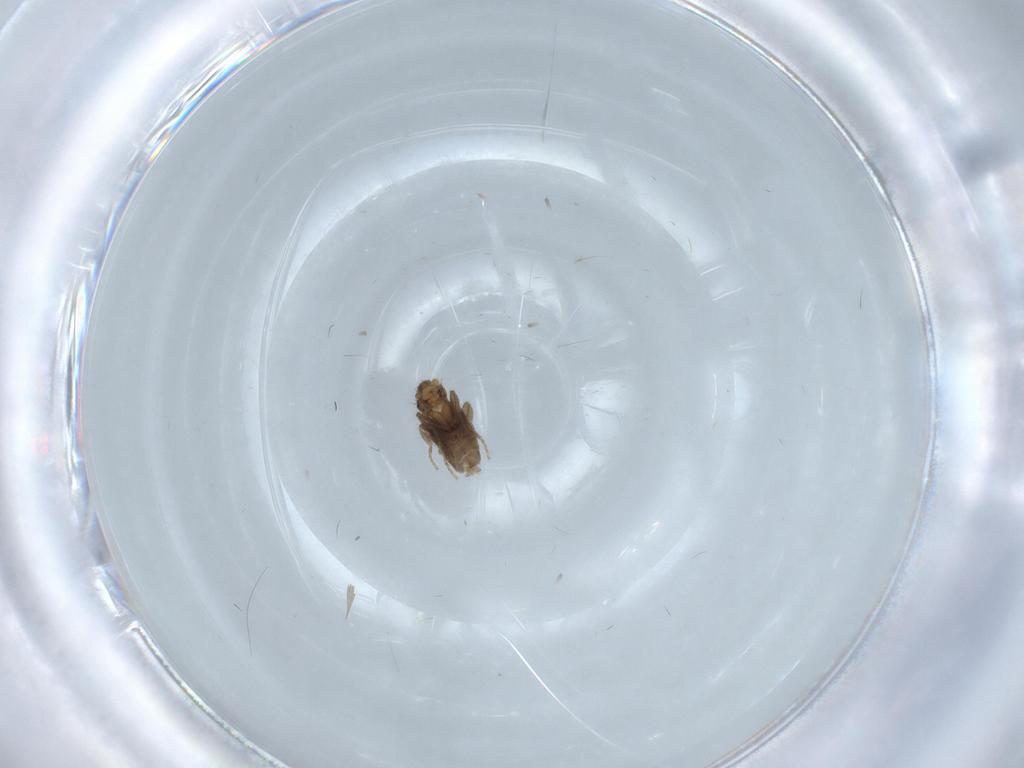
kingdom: Animalia
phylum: Arthropoda
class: Insecta
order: Diptera
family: Phoridae
